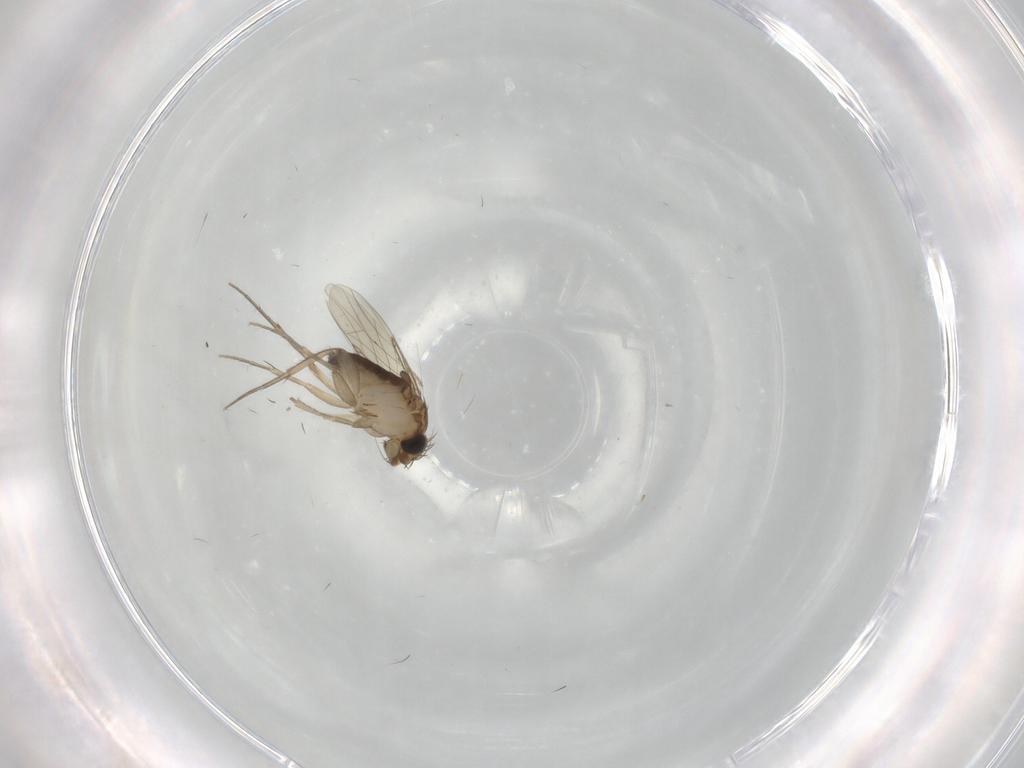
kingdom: Animalia
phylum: Arthropoda
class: Insecta
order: Diptera
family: Phoridae
